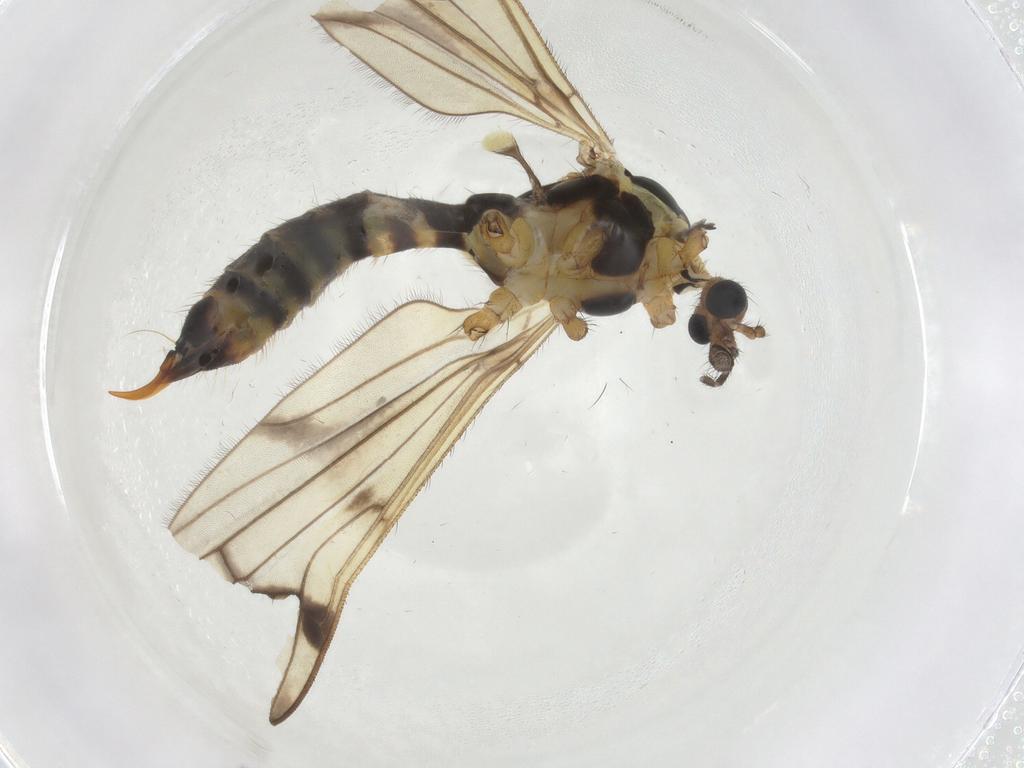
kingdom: Animalia
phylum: Arthropoda
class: Insecta
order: Diptera
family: Limoniidae
